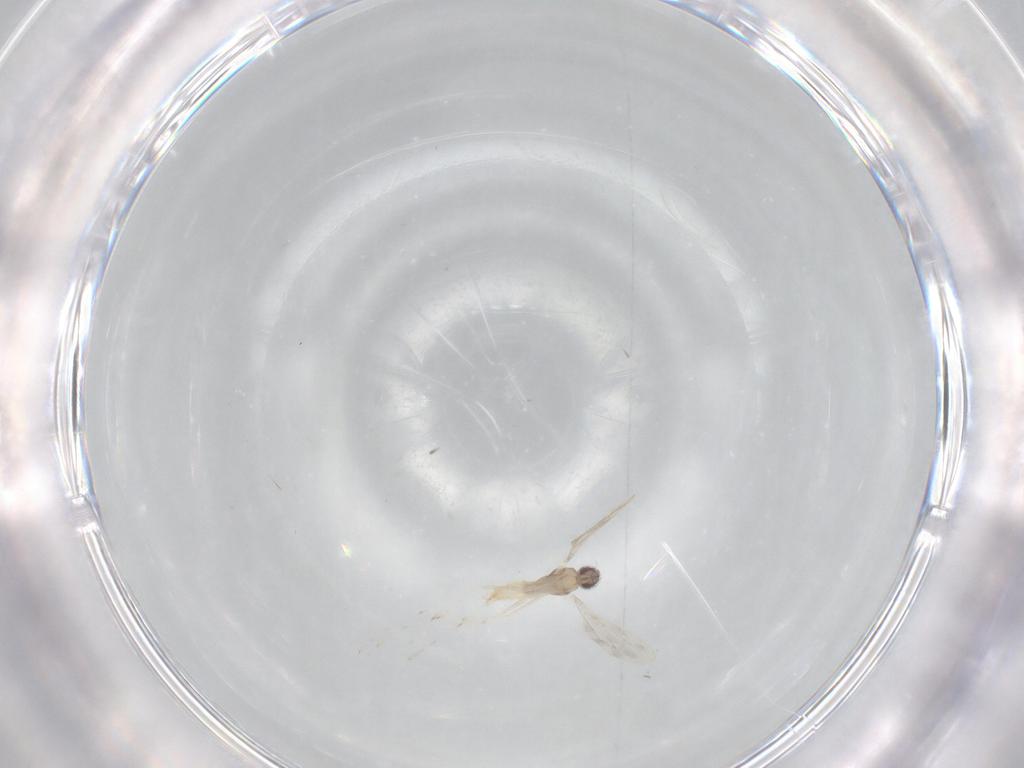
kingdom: Animalia
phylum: Arthropoda
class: Insecta
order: Diptera
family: Cecidomyiidae
